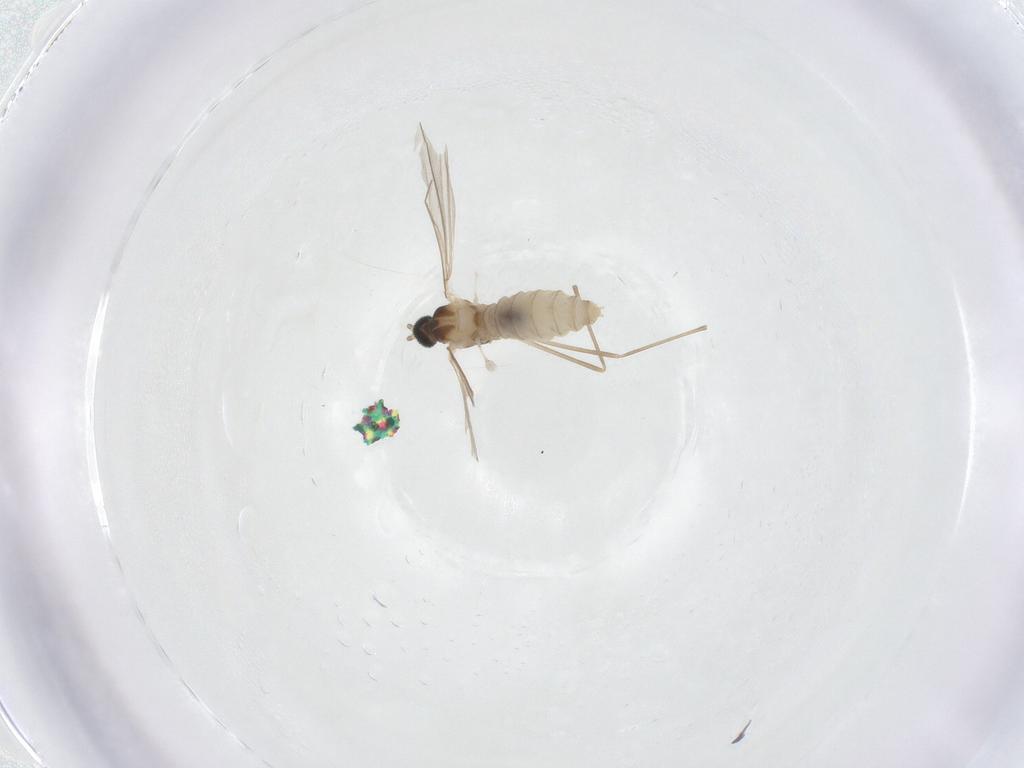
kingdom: Animalia
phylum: Arthropoda
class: Insecta
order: Diptera
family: Cecidomyiidae
